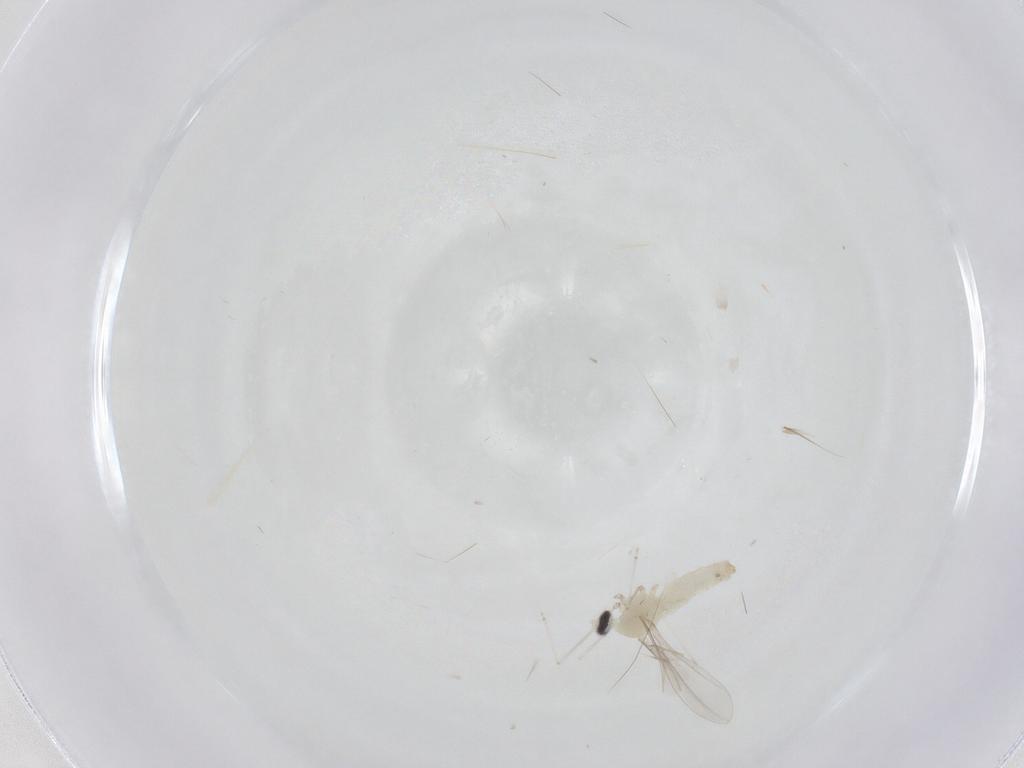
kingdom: Animalia
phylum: Arthropoda
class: Insecta
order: Diptera
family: Cecidomyiidae
